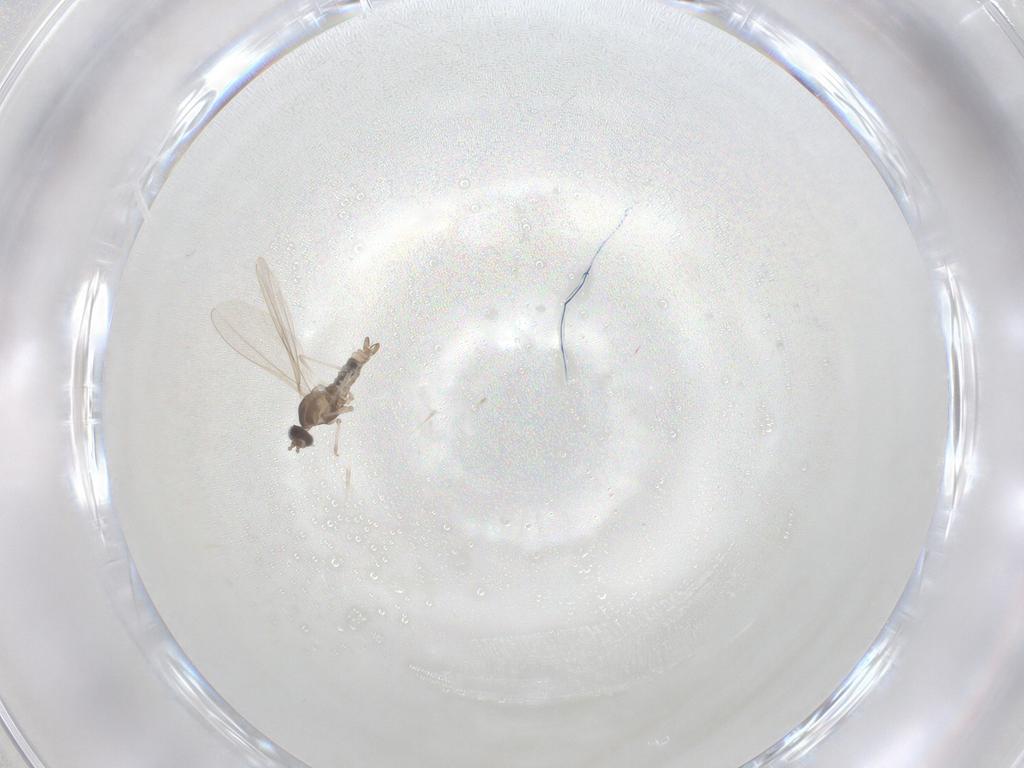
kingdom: Animalia
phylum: Arthropoda
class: Insecta
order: Diptera
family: Cecidomyiidae
